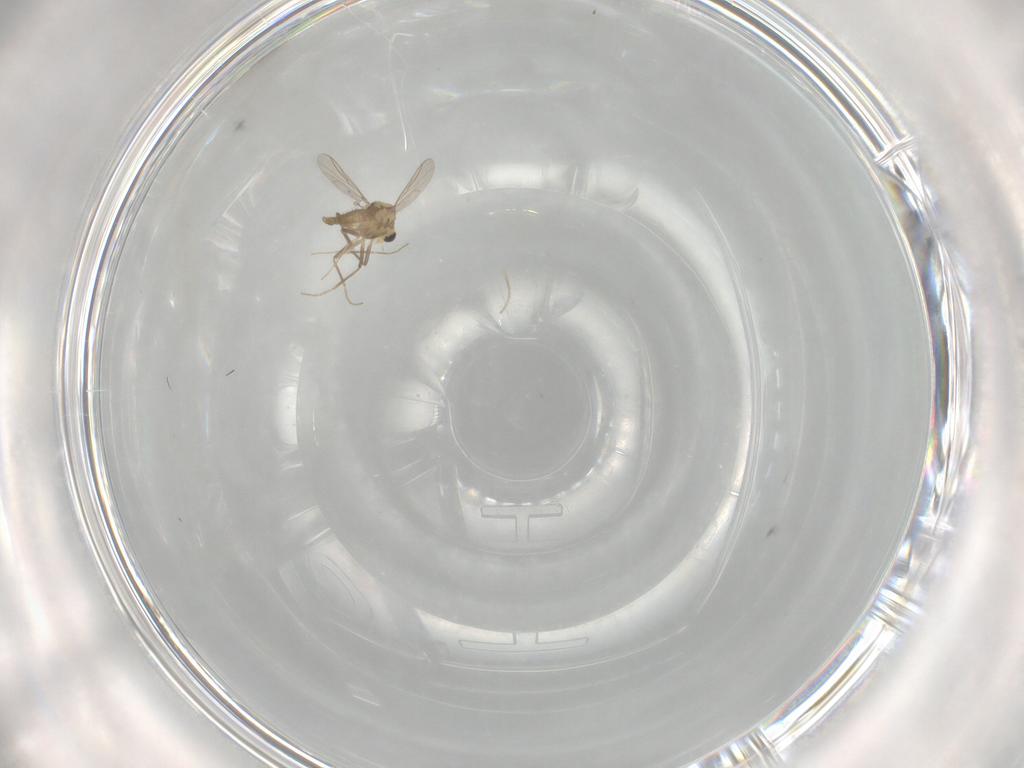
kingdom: Animalia
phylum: Arthropoda
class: Insecta
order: Diptera
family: Chironomidae
